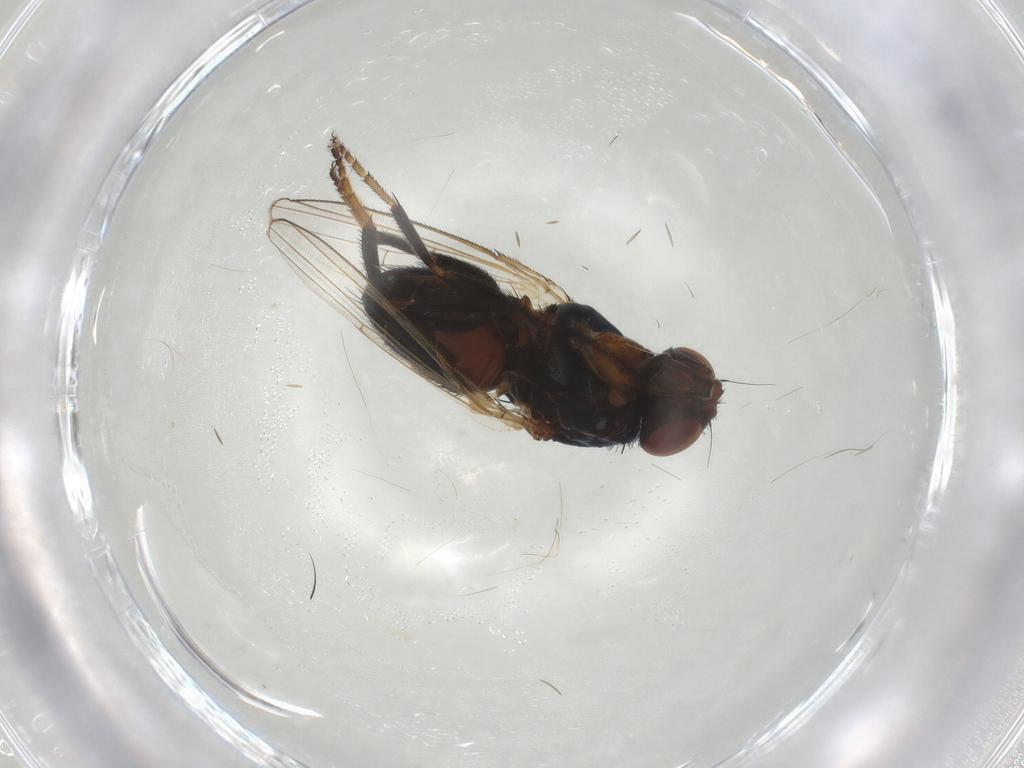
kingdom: Animalia
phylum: Arthropoda
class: Insecta
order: Diptera
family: Milichiidae
